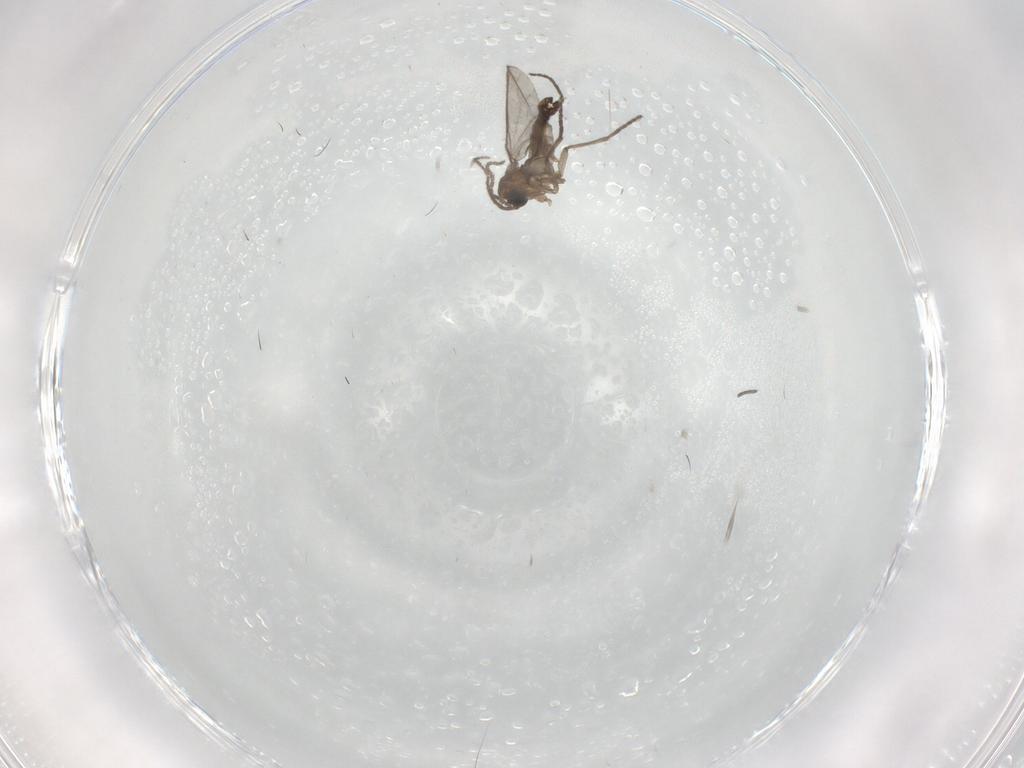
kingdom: Animalia
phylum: Arthropoda
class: Insecta
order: Diptera
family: Sciaridae
